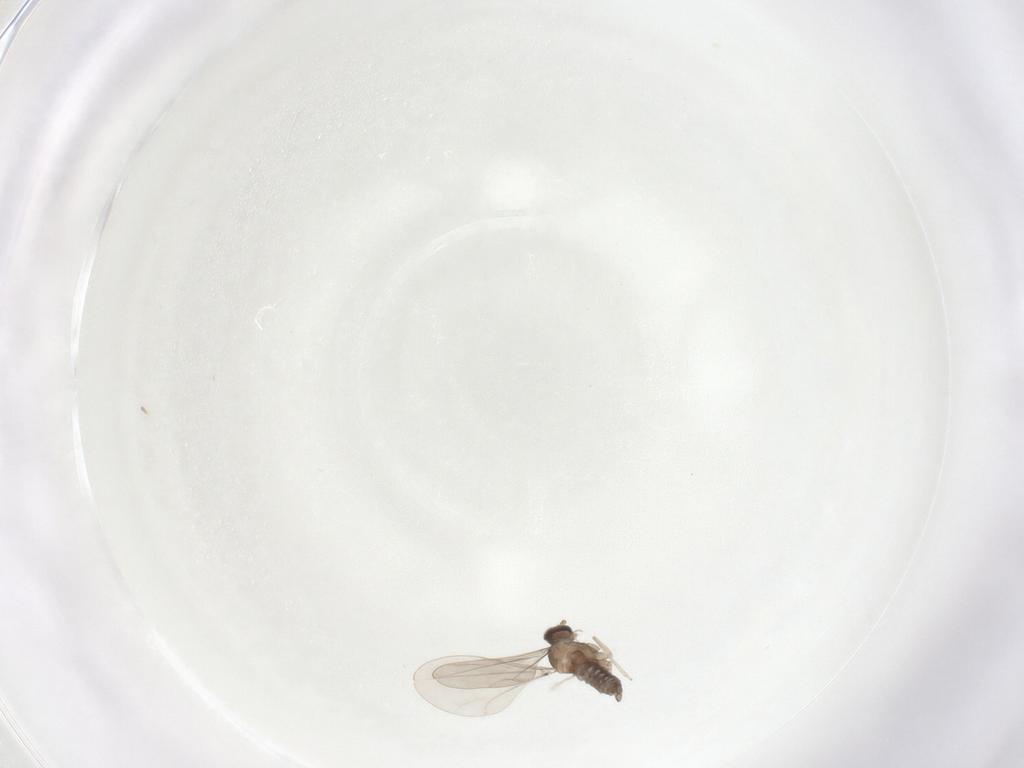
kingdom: Animalia
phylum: Arthropoda
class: Insecta
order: Diptera
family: Cecidomyiidae
